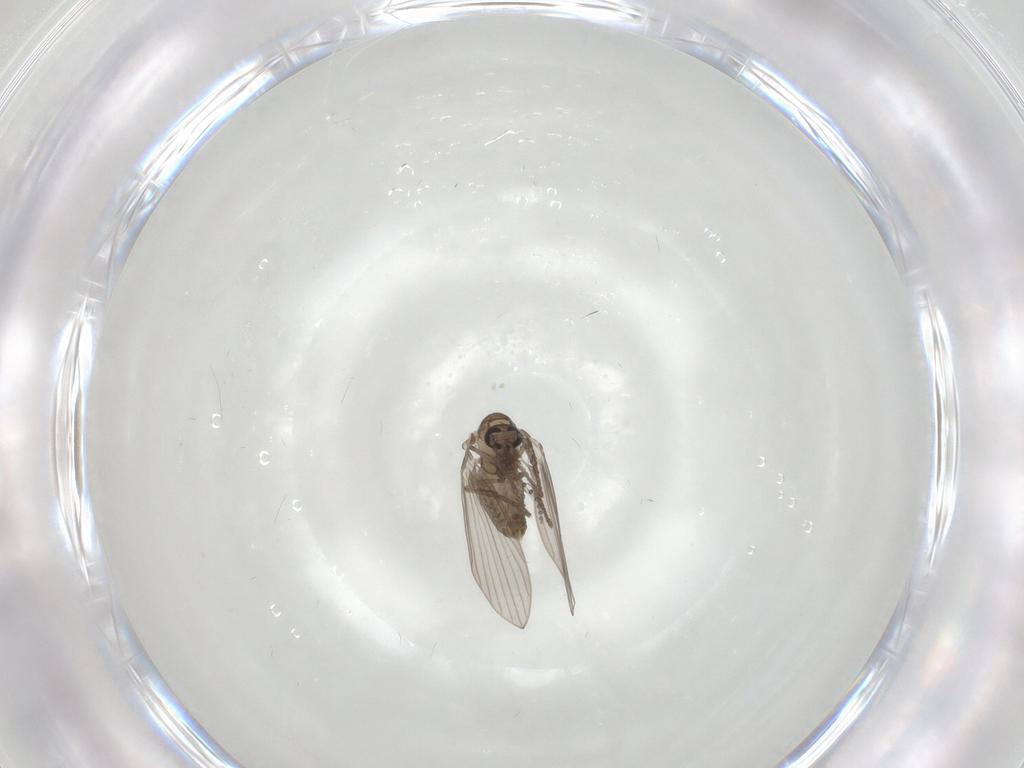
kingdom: Animalia
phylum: Arthropoda
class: Insecta
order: Diptera
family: Psychodidae
